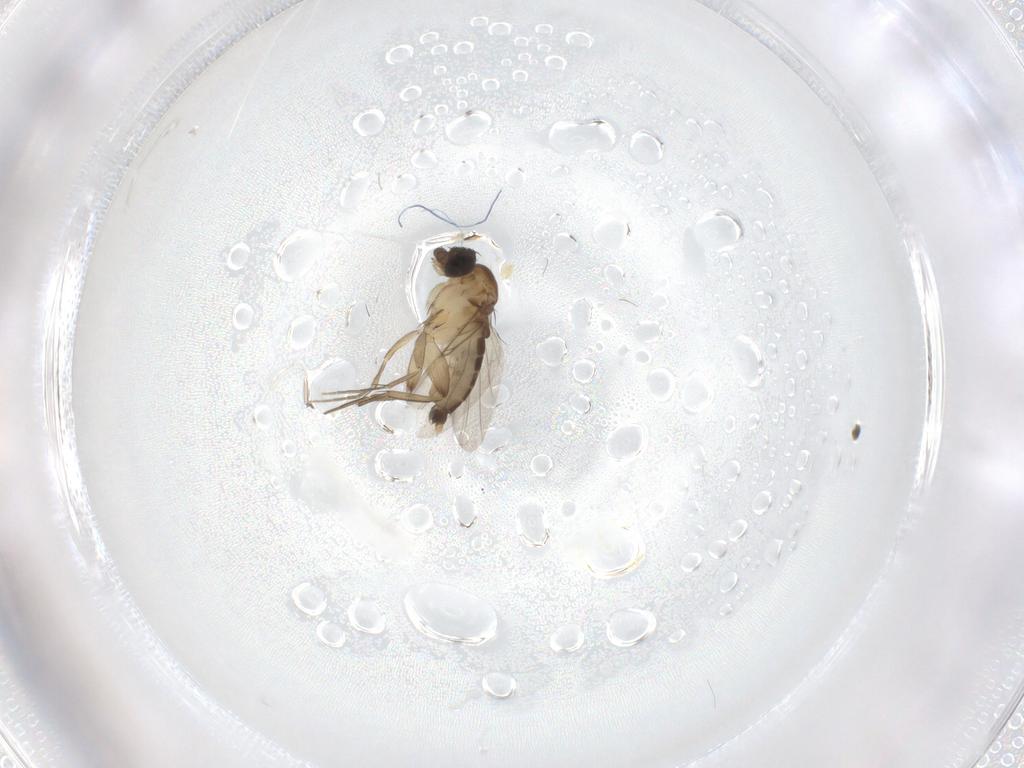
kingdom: Animalia
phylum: Arthropoda
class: Insecta
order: Diptera
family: Phoridae
